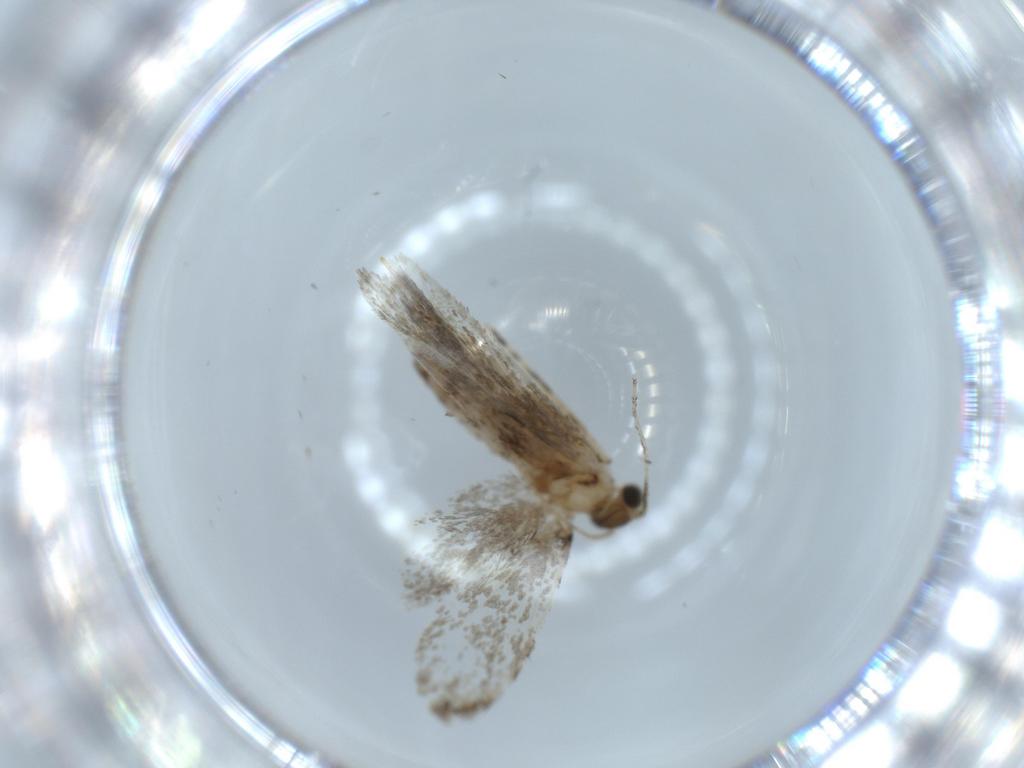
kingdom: Animalia
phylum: Arthropoda
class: Insecta
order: Lepidoptera
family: Tineidae
